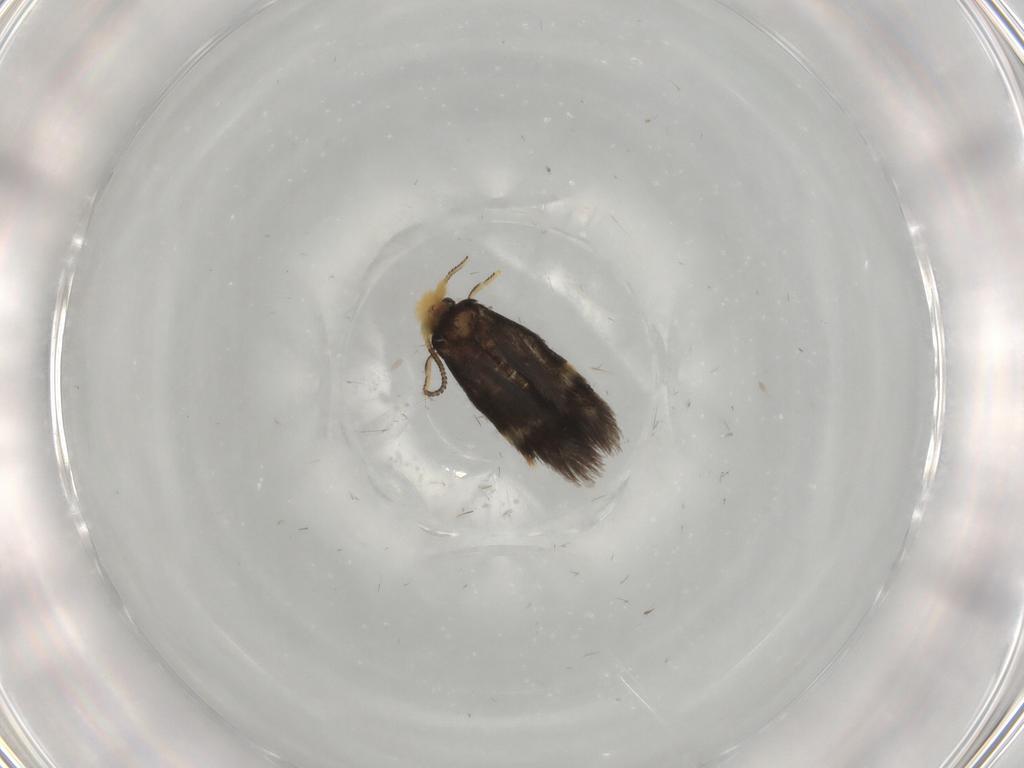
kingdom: Animalia
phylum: Arthropoda
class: Insecta
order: Lepidoptera
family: Nepticulidae
